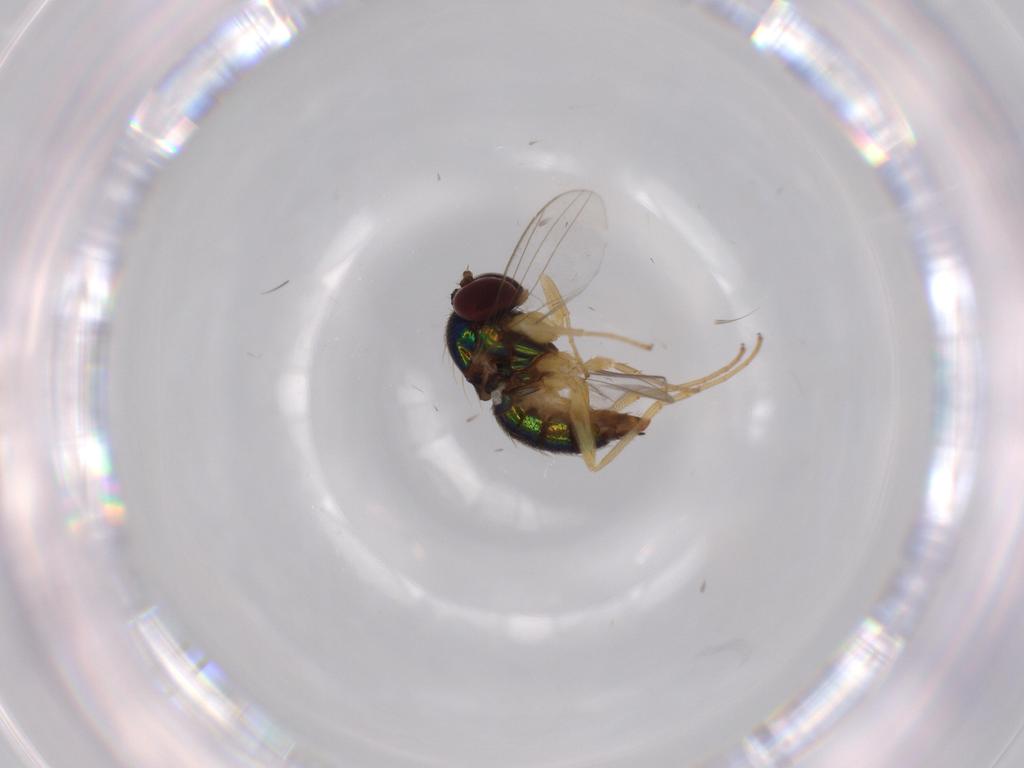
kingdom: Animalia
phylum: Arthropoda
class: Insecta
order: Diptera
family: Dolichopodidae
